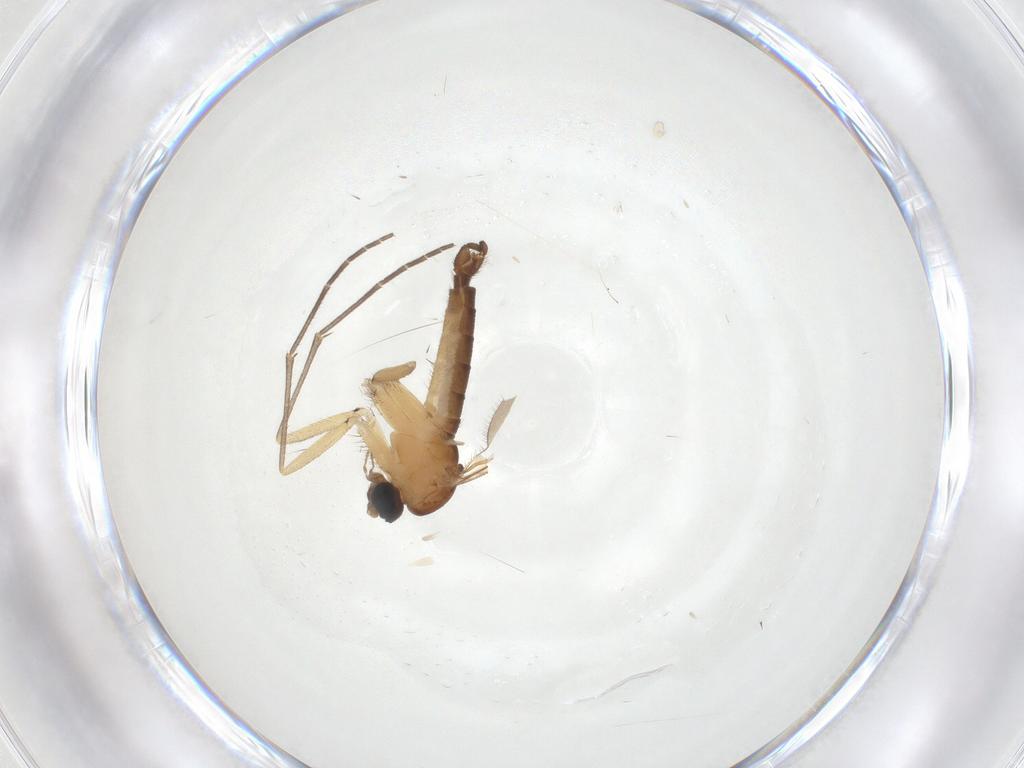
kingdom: Animalia
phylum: Arthropoda
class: Insecta
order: Diptera
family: Sciaridae
